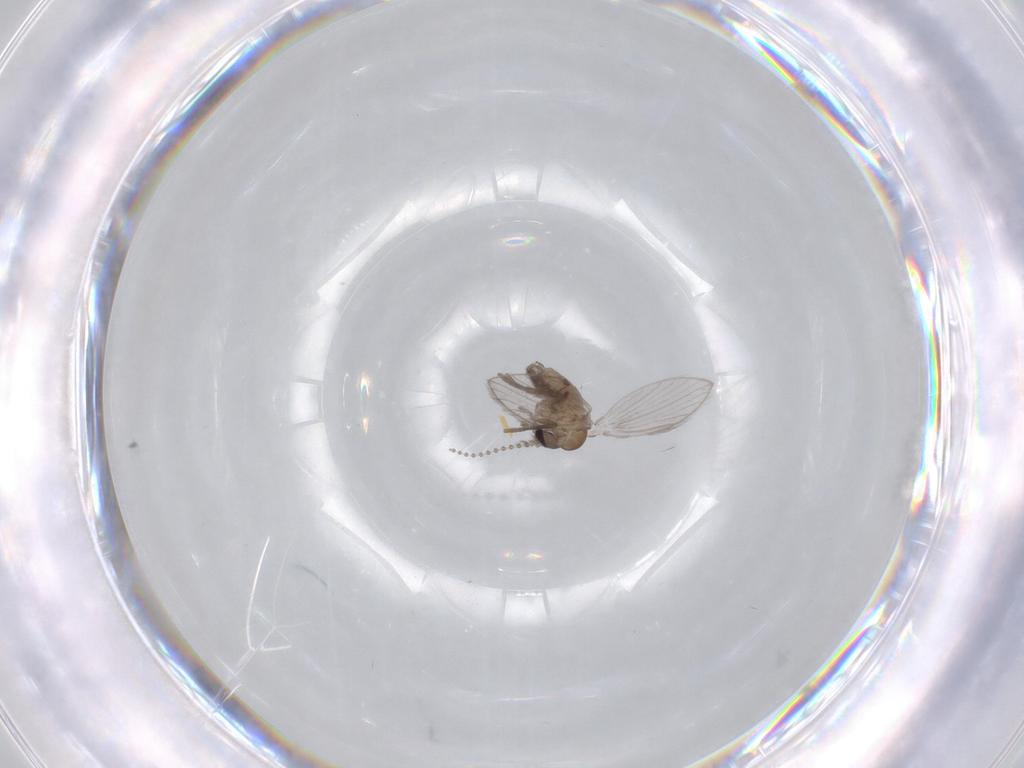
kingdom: Animalia
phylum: Arthropoda
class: Insecta
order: Diptera
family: Psychodidae
